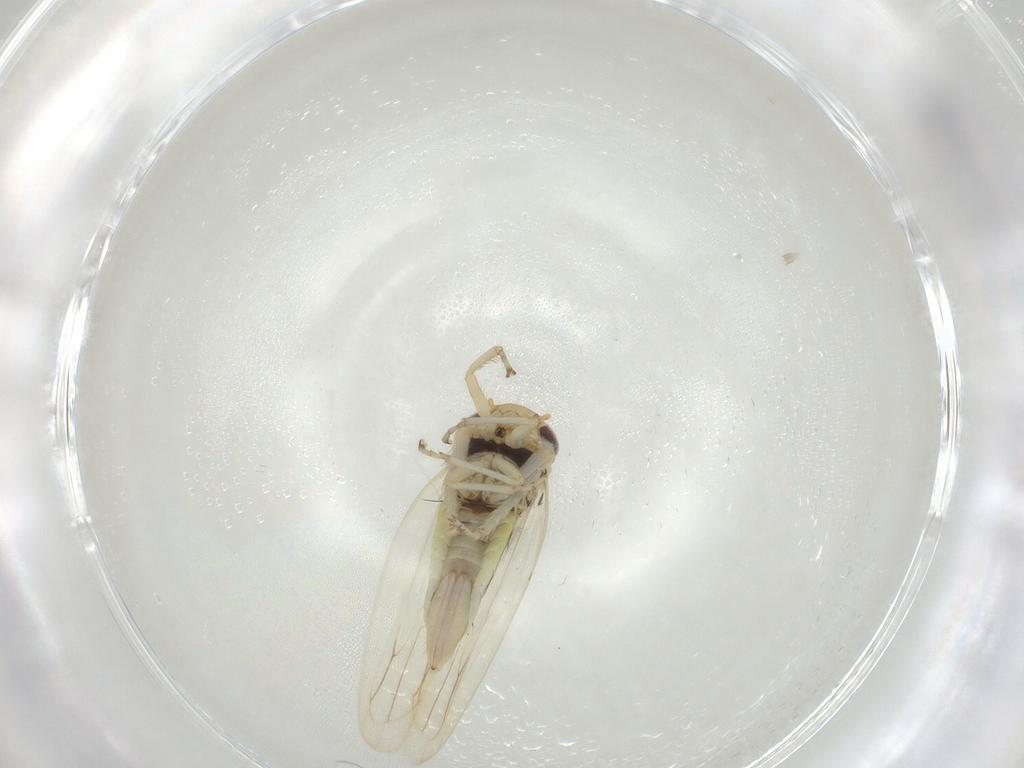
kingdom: Animalia
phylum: Arthropoda
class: Insecta
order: Hemiptera
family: Cicadellidae
